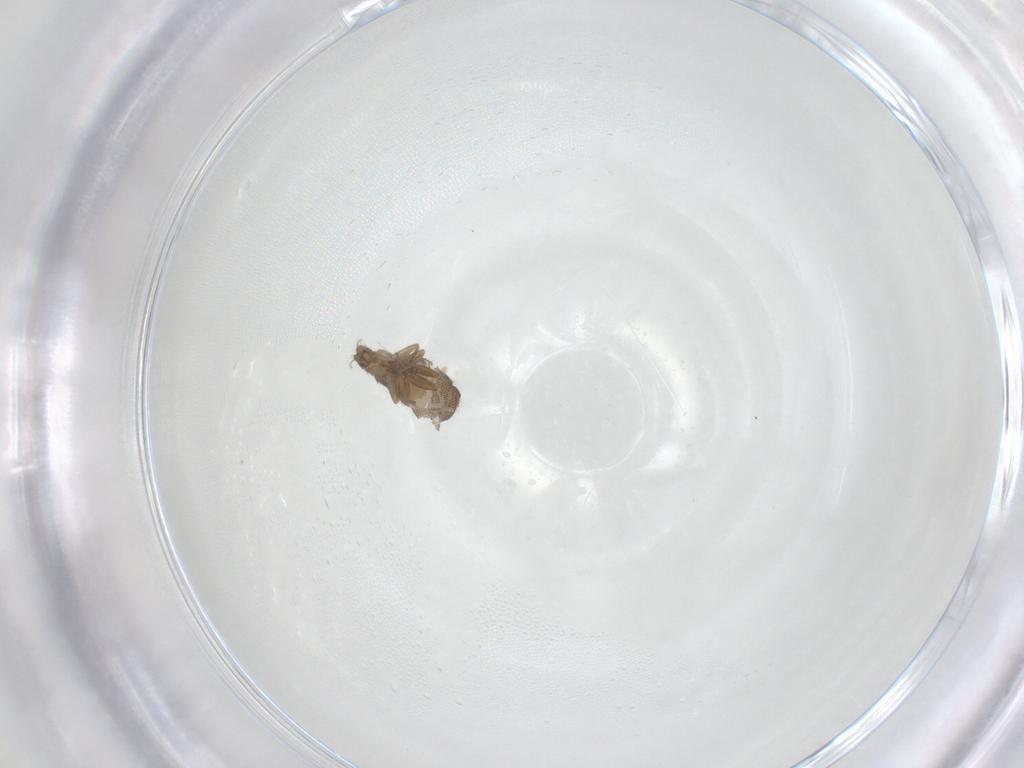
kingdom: Animalia
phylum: Arthropoda
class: Insecta
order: Diptera
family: Phoridae
